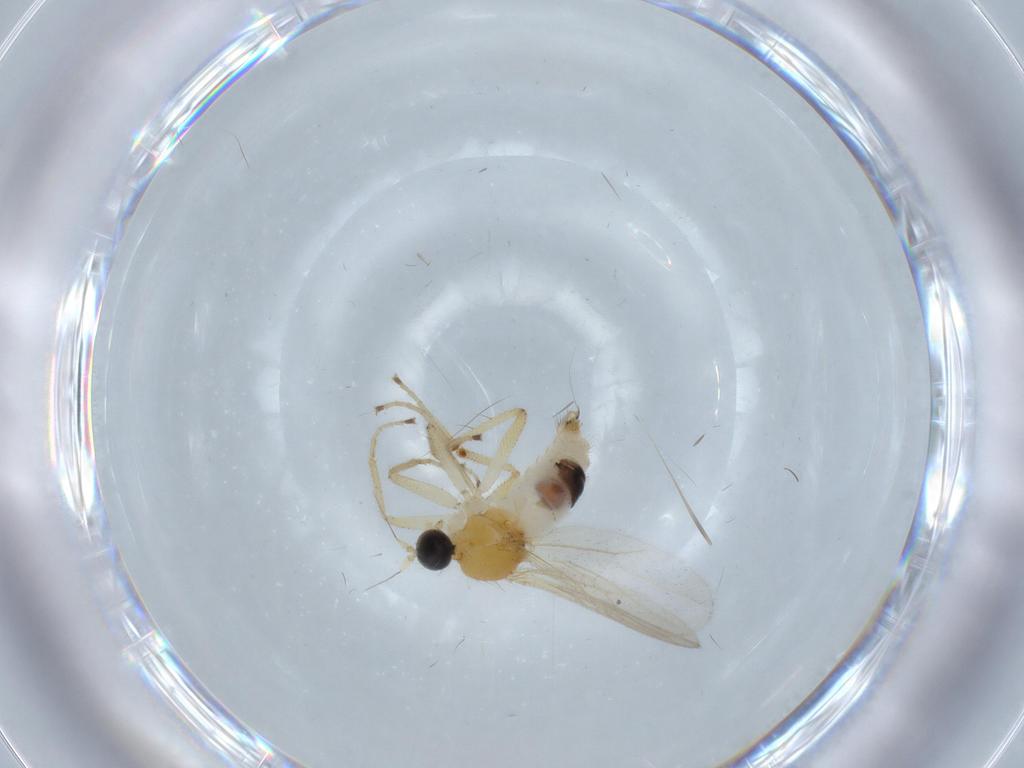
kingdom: Animalia
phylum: Arthropoda
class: Insecta
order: Diptera
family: Hybotidae
